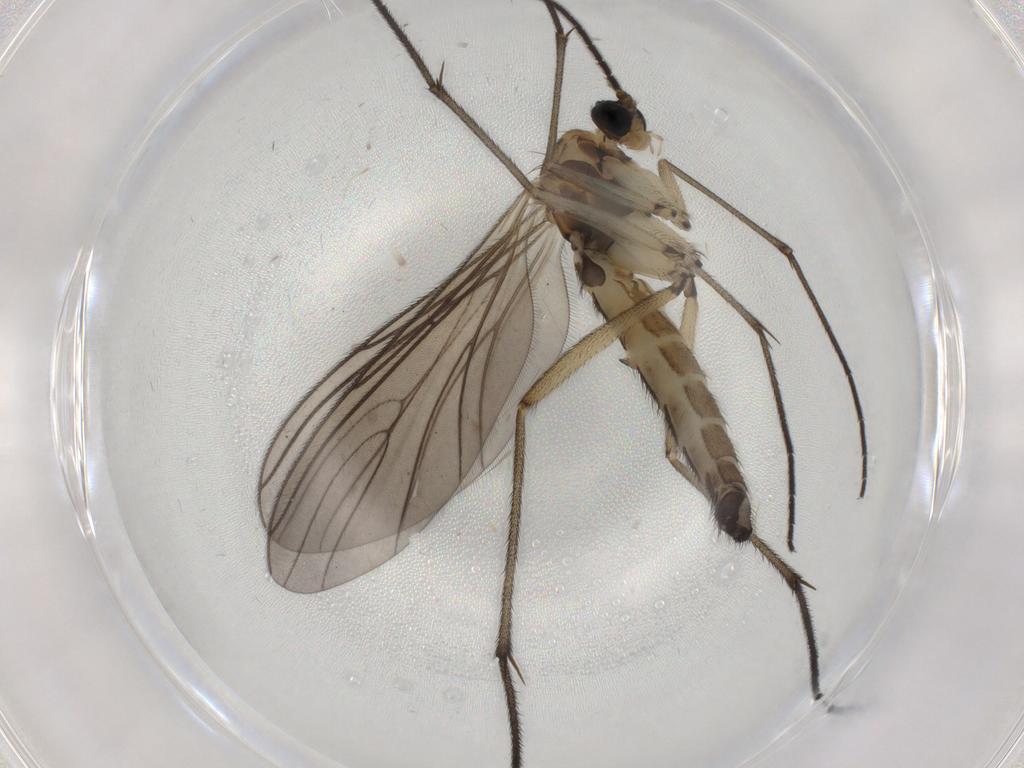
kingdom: Animalia
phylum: Arthropoda
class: Insecta
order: Diptera
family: Sciaridae
